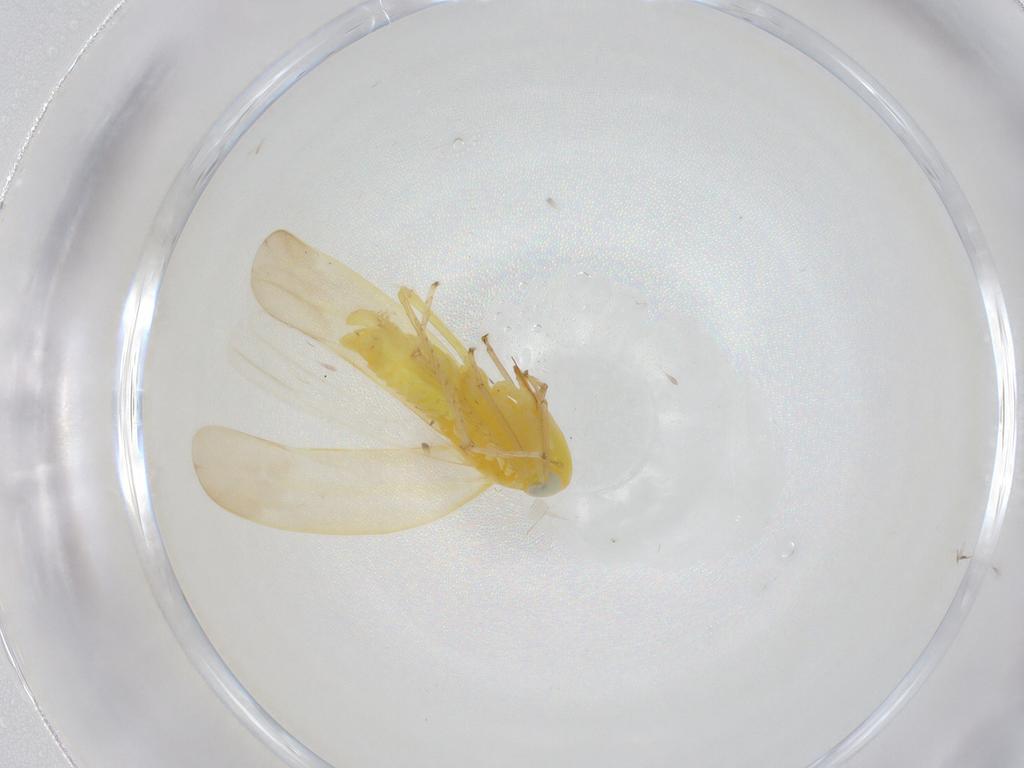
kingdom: Animalia
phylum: Arthropoda
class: Insecta
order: Hemiptera
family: Cicadellidae
